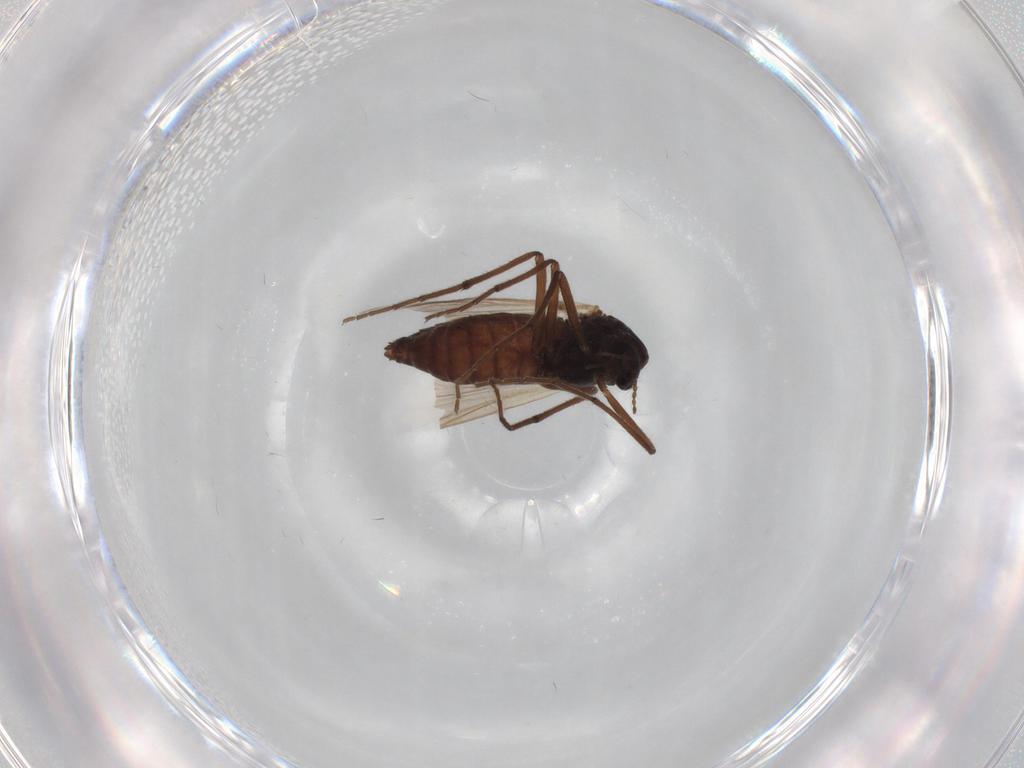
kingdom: Animalia
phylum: Arthropoda
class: Insecta
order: Diptera
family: Chironomidae
